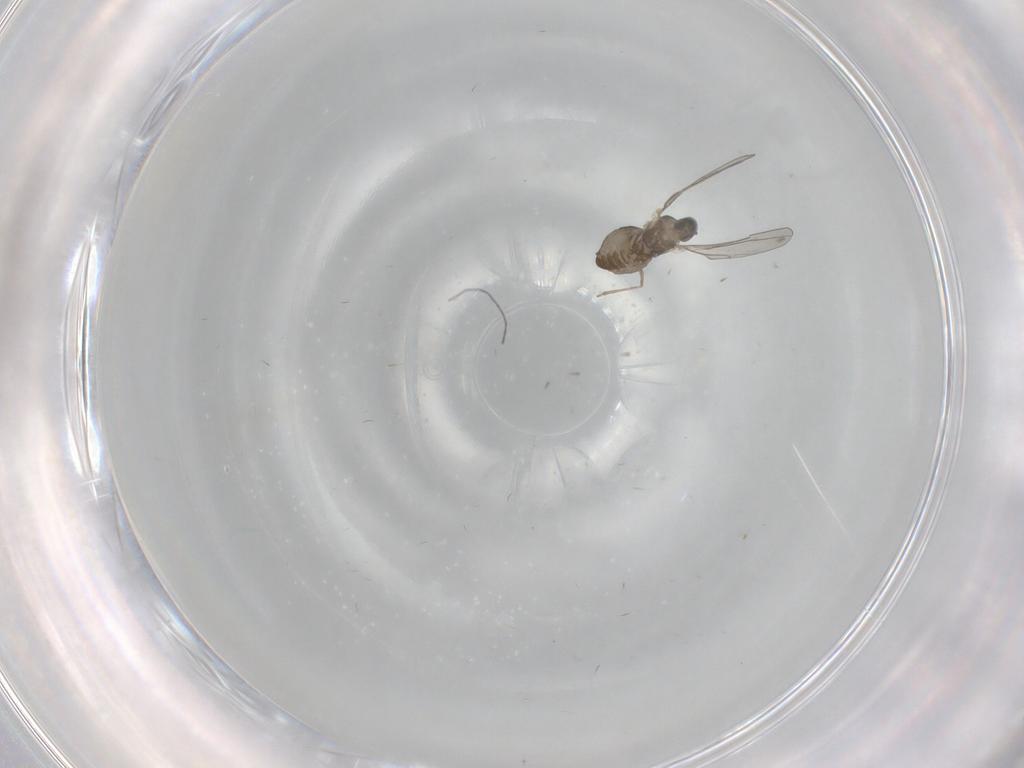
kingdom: Animalia
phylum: Arthropoda
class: Insecta
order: Diptera
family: Cecidomyiidae
